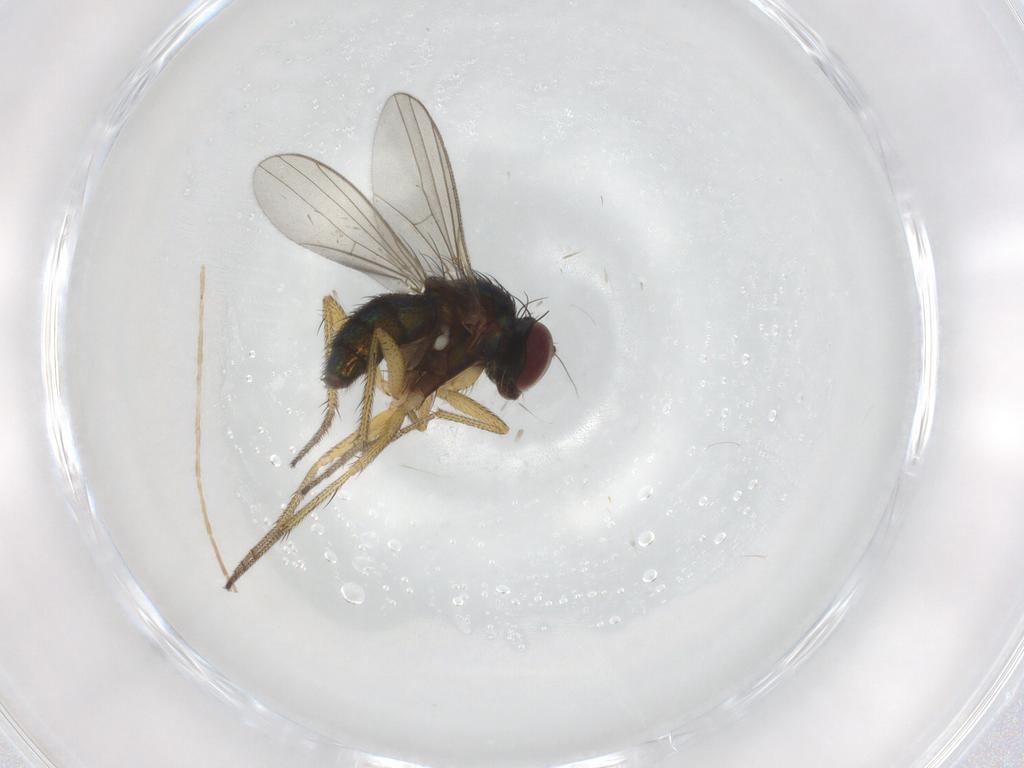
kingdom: Animalia
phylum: Arthropoda
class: Insecta
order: Diptera
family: Dolichopodidae
